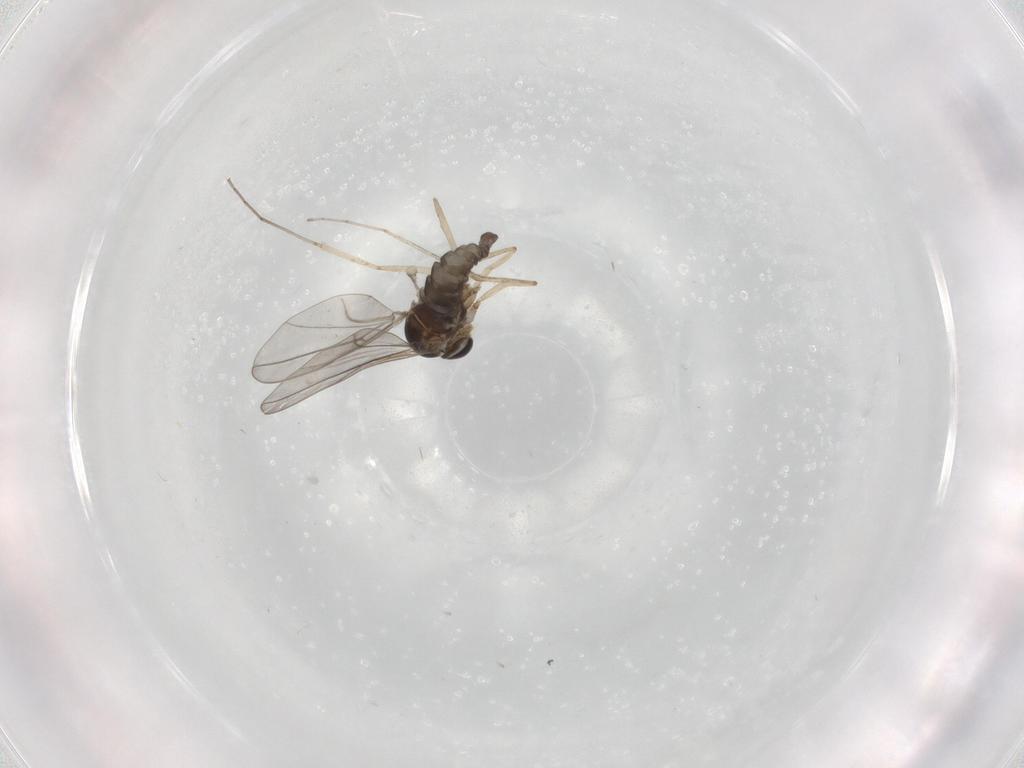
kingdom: Animalia
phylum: Arthropoda
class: Insecta
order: Diptera
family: Cecidomyiidae
